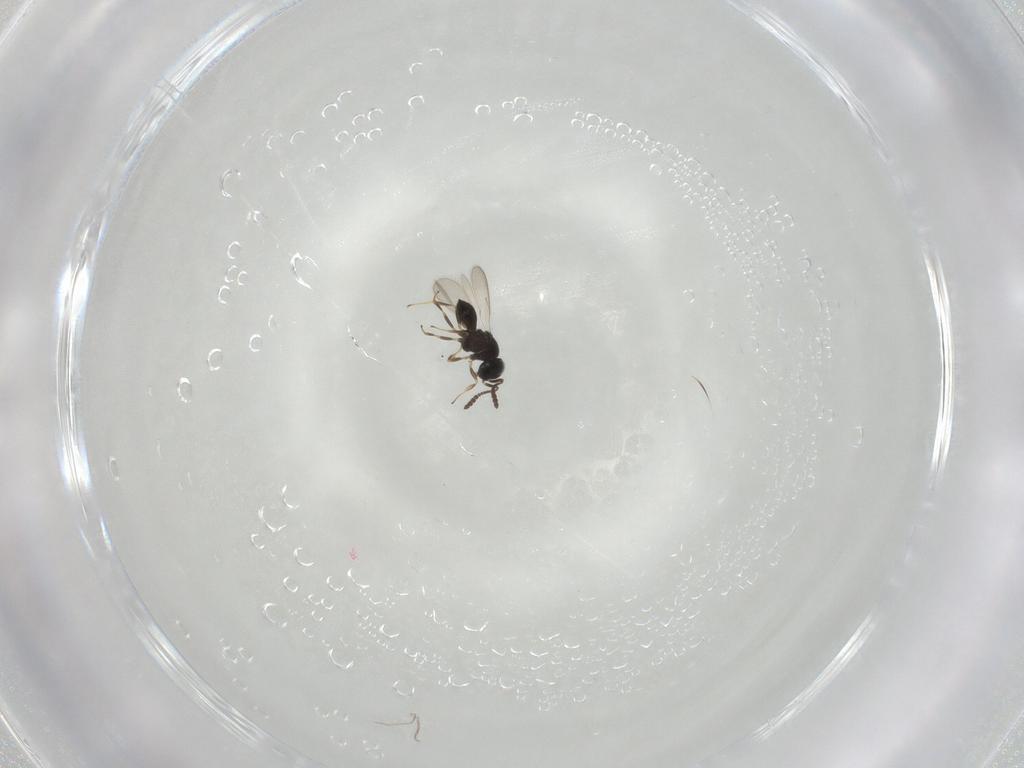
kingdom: Animalia
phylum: Arthropoda
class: Insecta
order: Hymenoptera
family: Scelionidae
